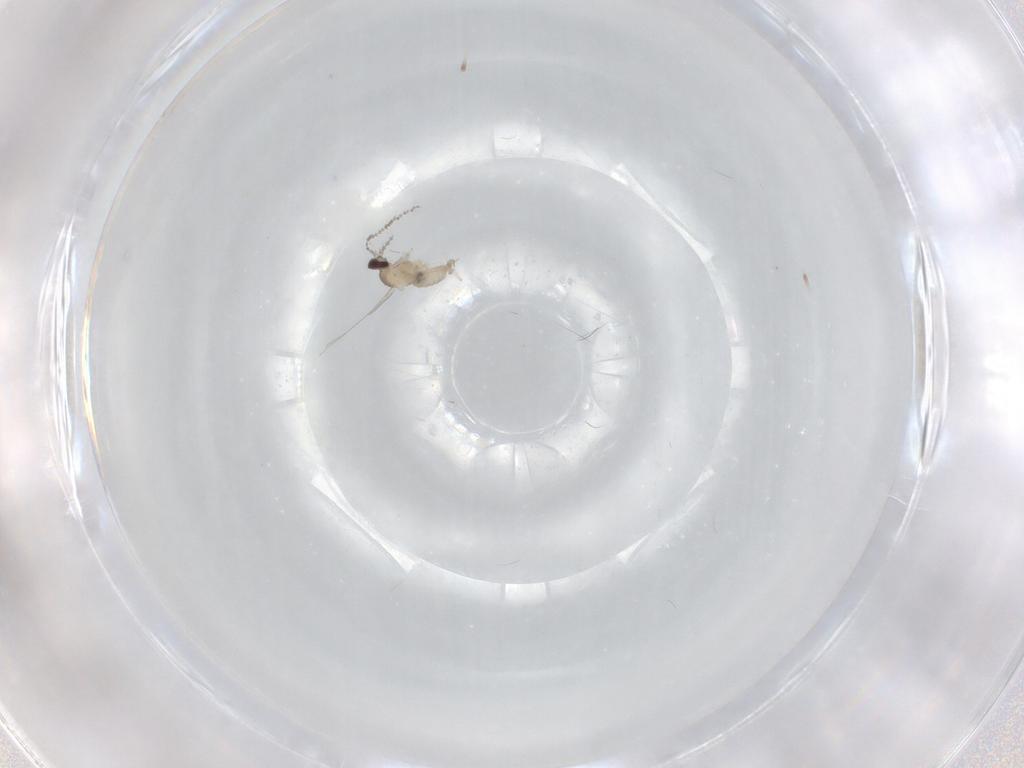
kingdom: Animalia
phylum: Arthropoda
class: Insecta
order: Diptera
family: Cecidomyiidae
